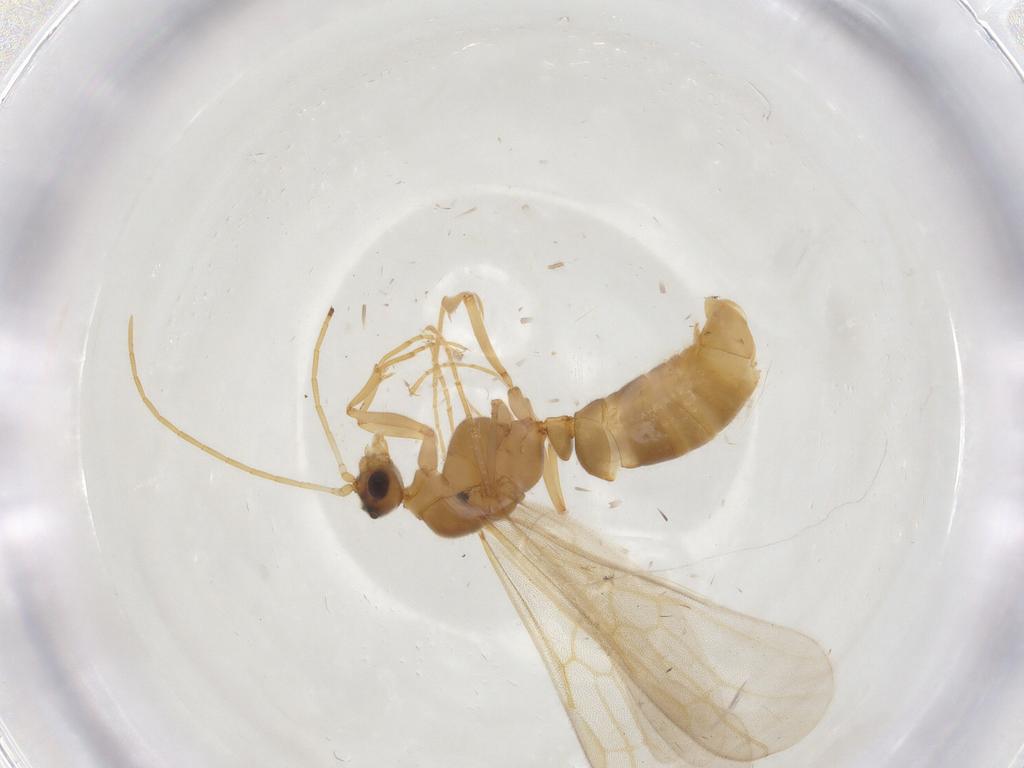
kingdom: Animalia
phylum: Arthropoda
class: Insecta
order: Hymenoptera
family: Formicidae
